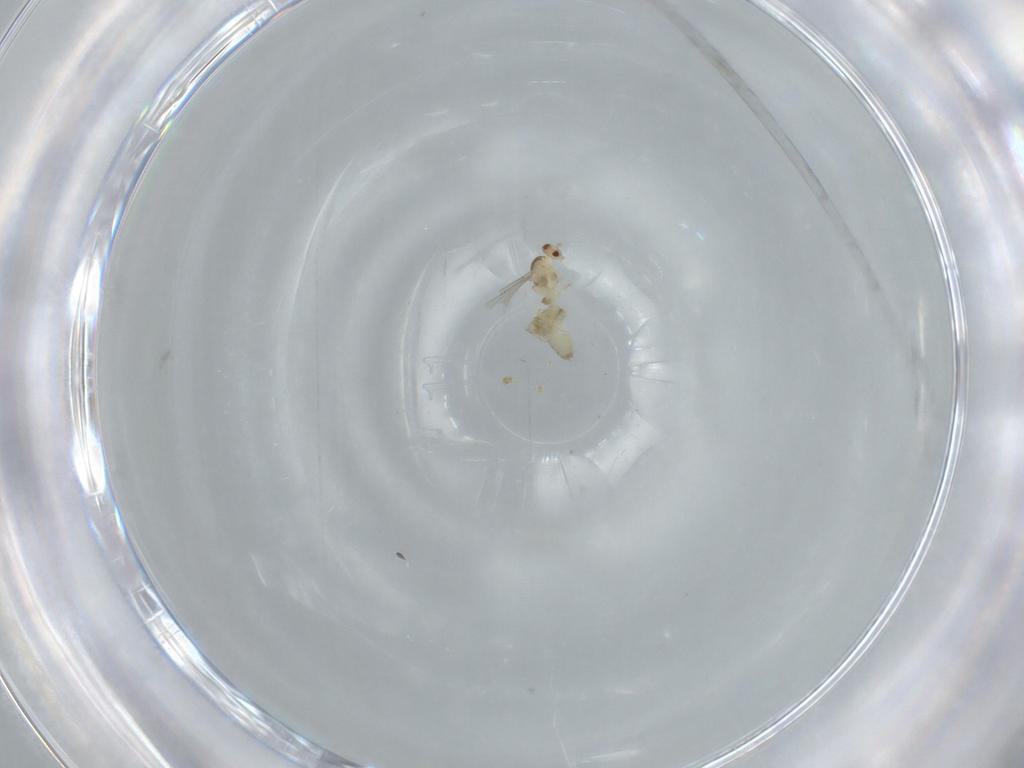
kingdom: Animalia
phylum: Arthropoda
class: Insecta
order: Diptera
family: Cecidomyiidae
